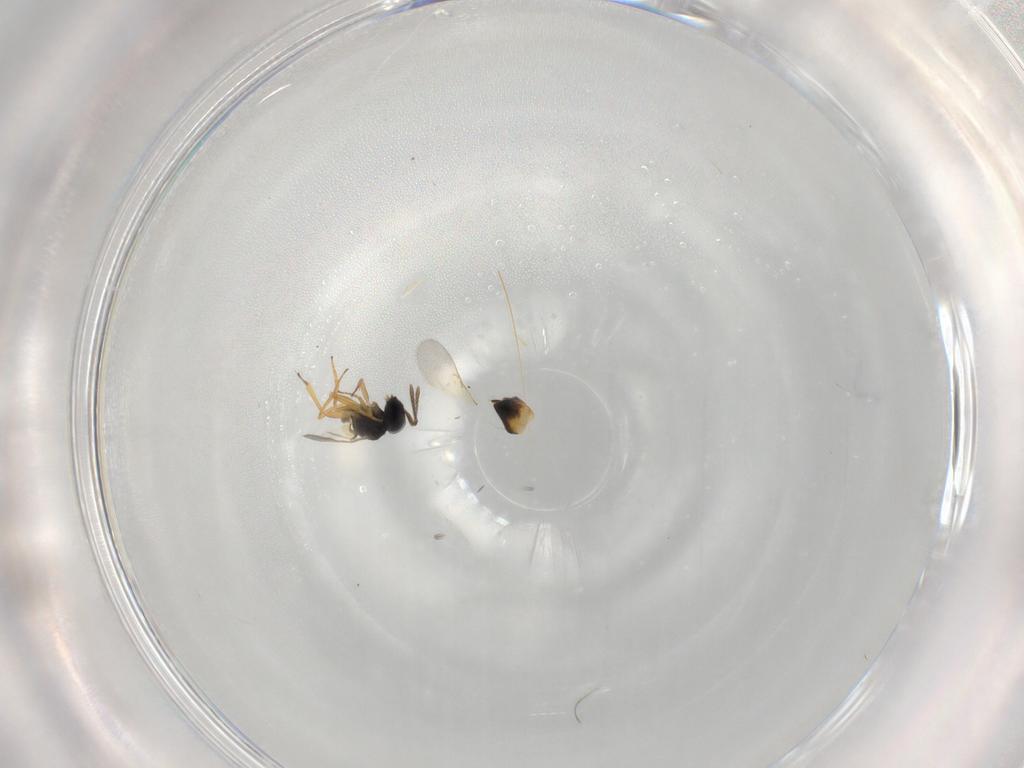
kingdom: Animalia
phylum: Arthropoda
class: Insecta
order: Hymenoptera
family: Encyrtidae
